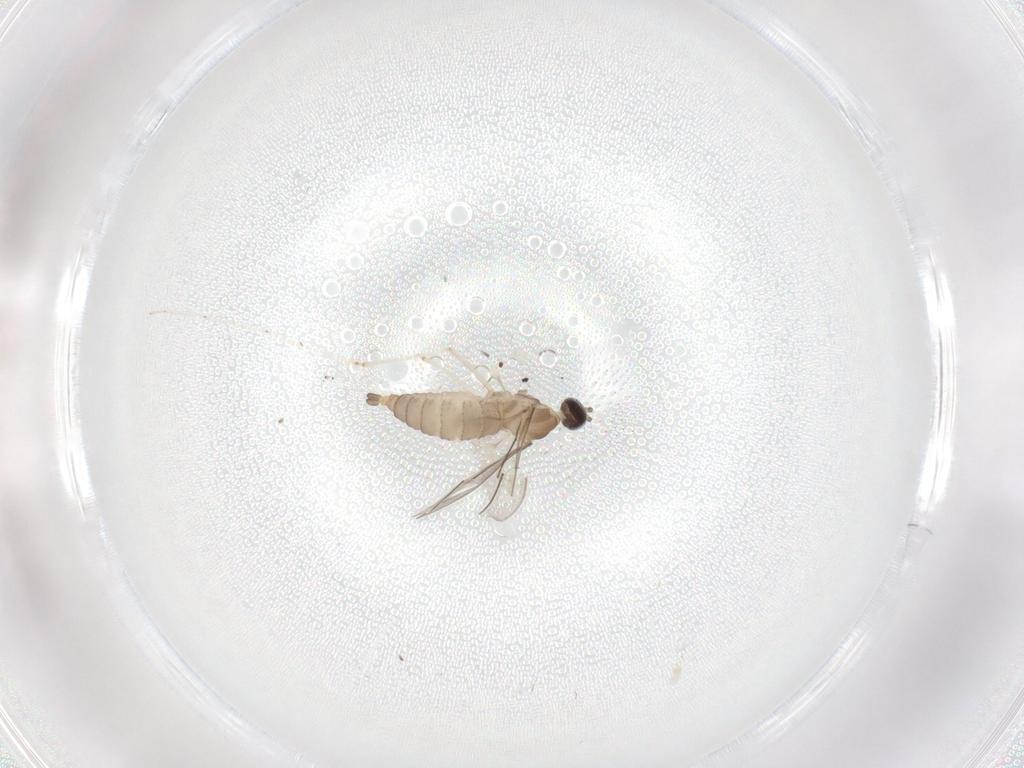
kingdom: Animalia
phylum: Arthropoda
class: Insecta
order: Diptera
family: Cecidomyiidae
